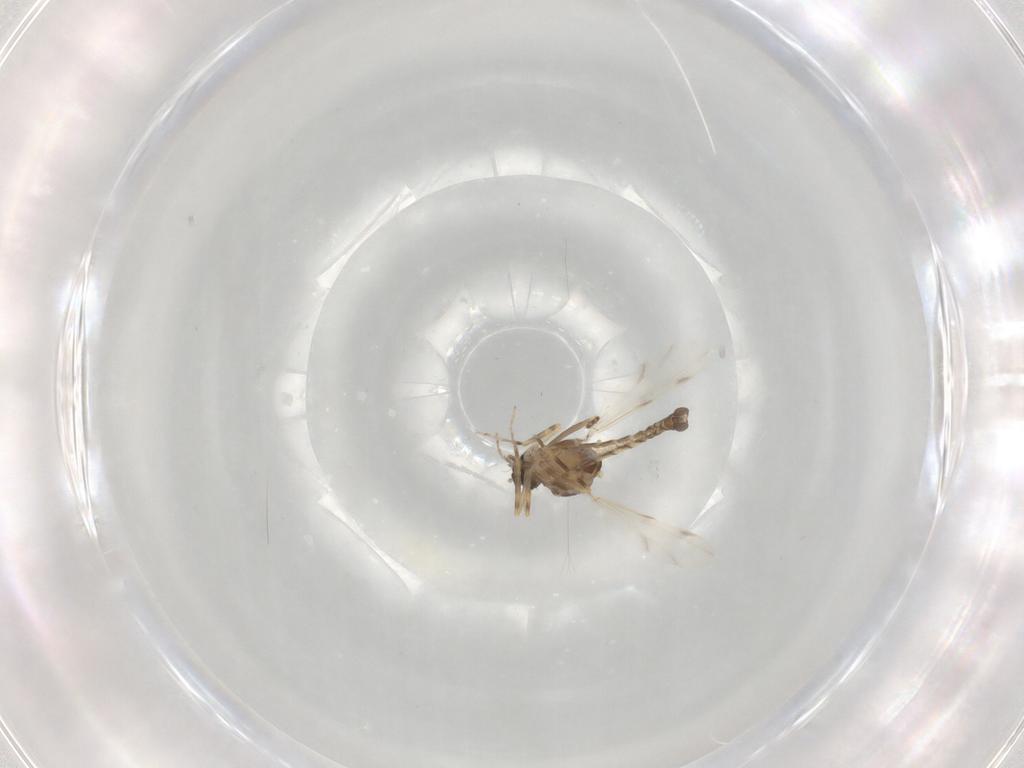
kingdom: Animalia
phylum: Arthropoda
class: Insecta
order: Diptera
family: Ceratopogonidae
